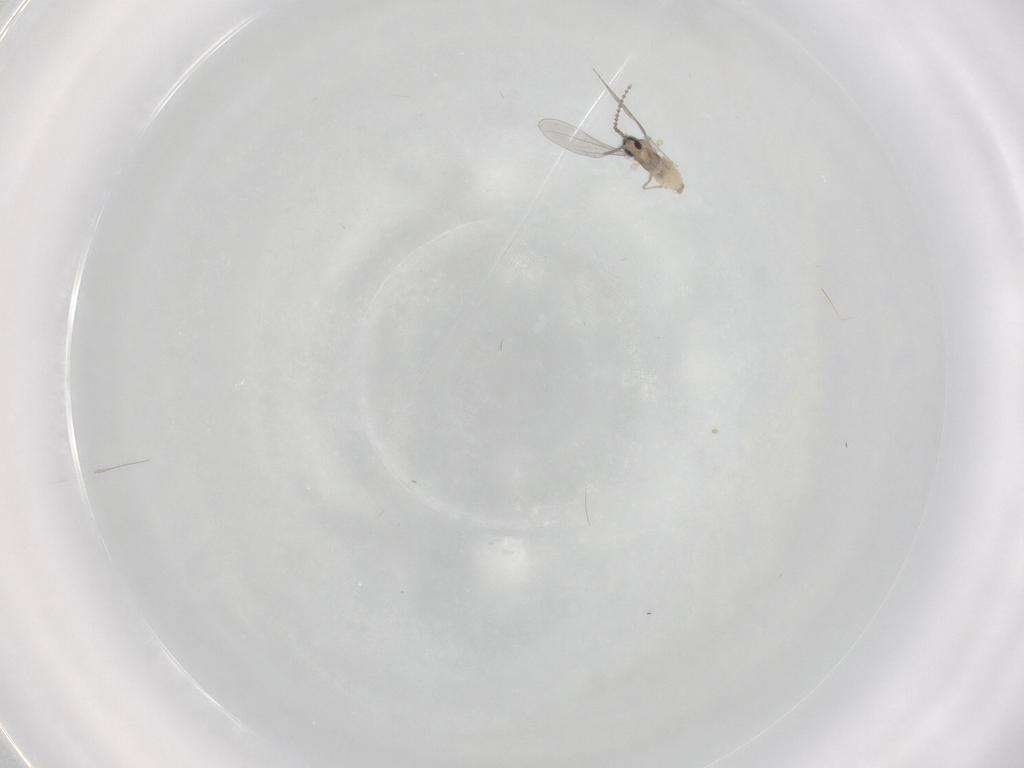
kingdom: Animalia
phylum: Arthropoda
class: Insecta
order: Diptera
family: Cecidomyiidae
